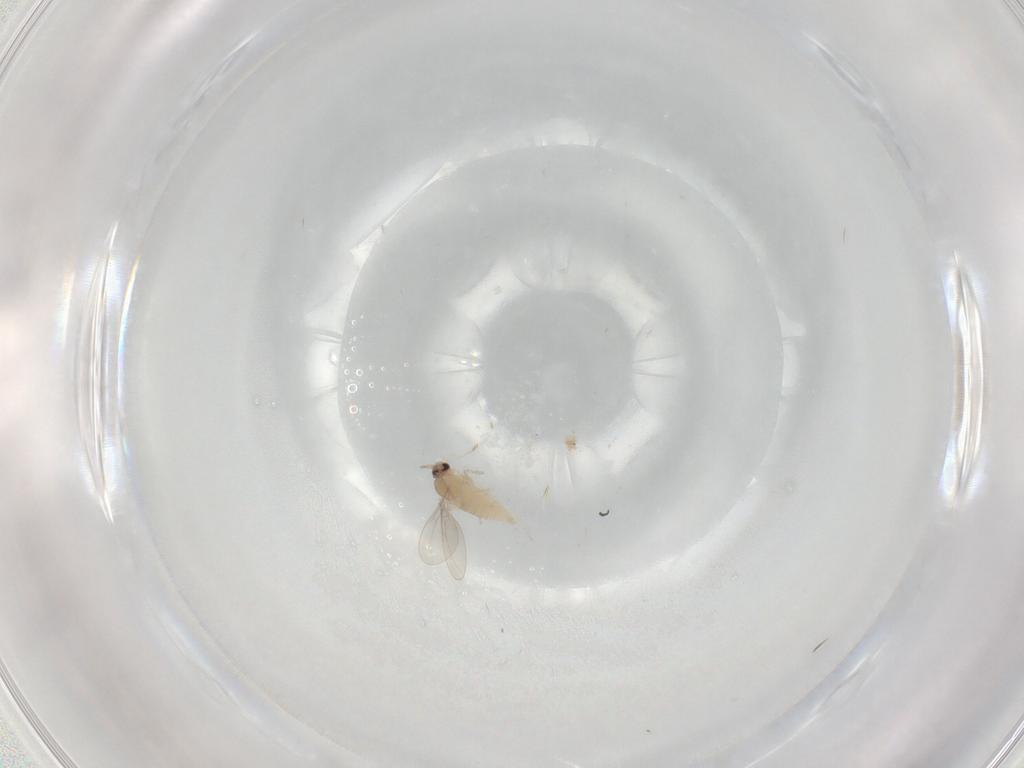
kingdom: Animalia
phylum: Arthropoda
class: Insecta
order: Diptera
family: Cecidomyiidae
